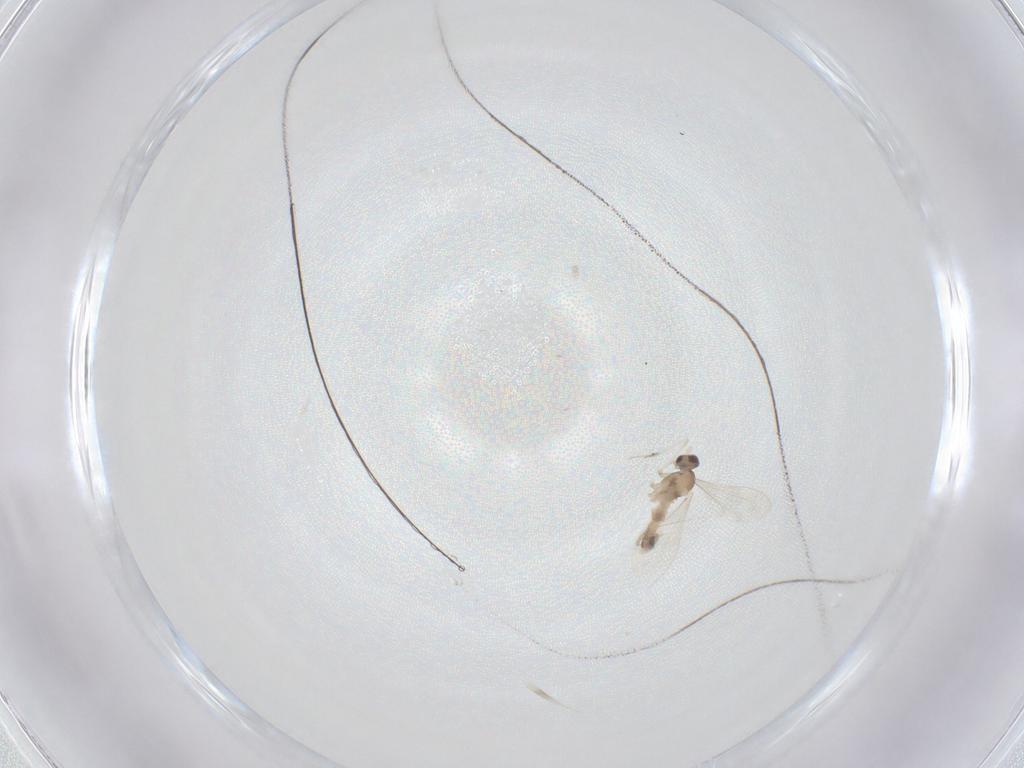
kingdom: Animalia
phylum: Arthropoda
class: Insecta
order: Diptera
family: Cecidomyiidae
